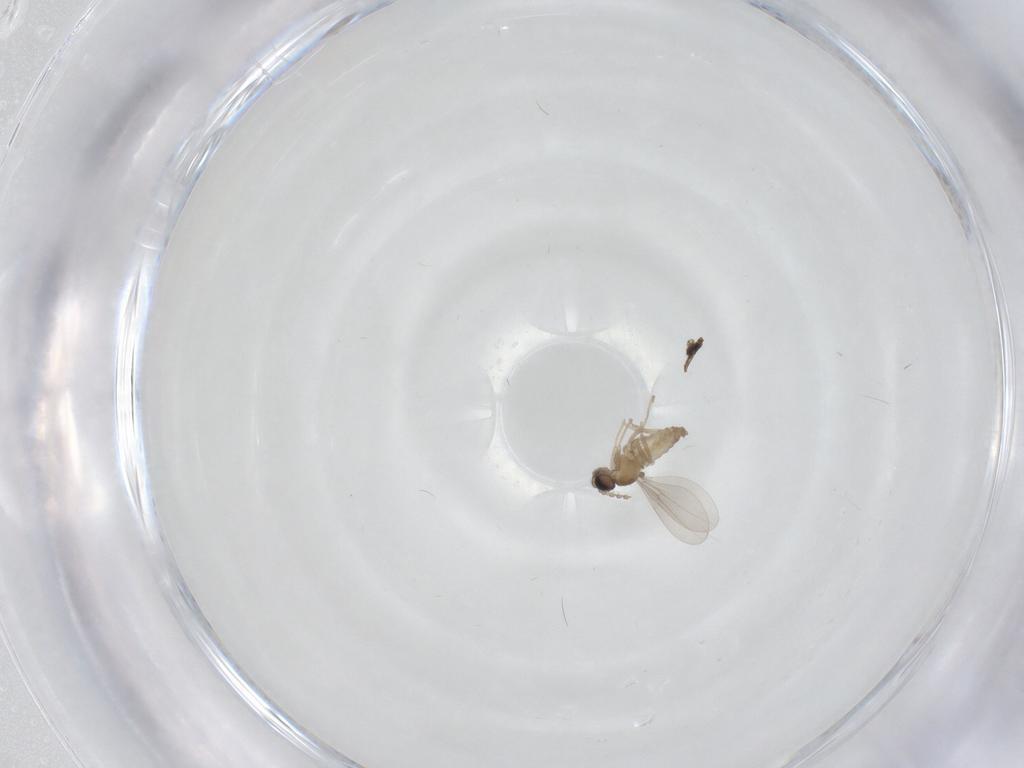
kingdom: Animalia
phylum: Arthropoda
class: Insecta
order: Diptera
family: Cecidomyiidae
